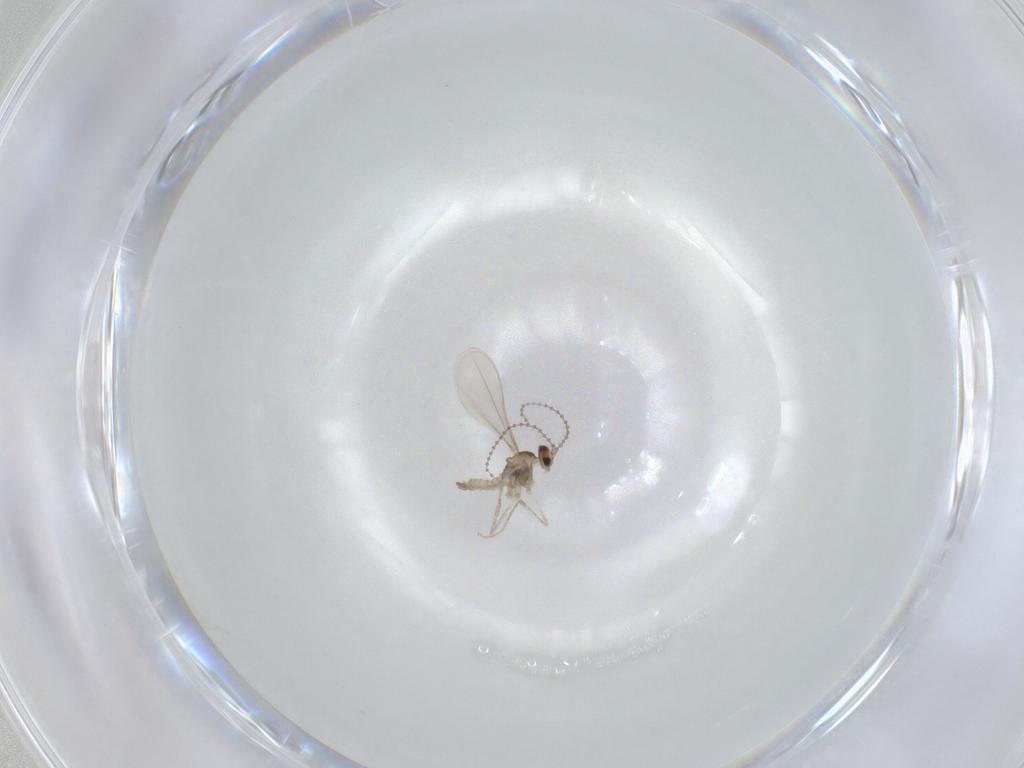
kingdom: Animalia
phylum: Arthropoda
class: Insecta
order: Diptera
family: Cecidomyiidae
